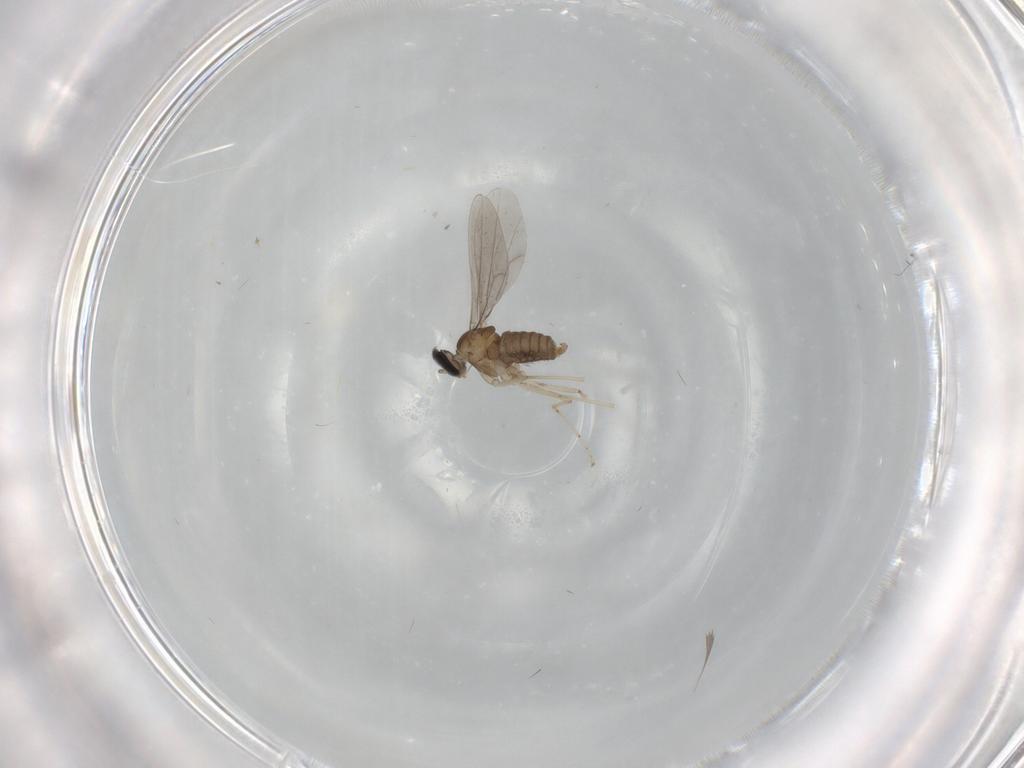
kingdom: Animalia
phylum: Arthropoda
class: Insecta
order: Diptera
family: Cecidomyiidae
